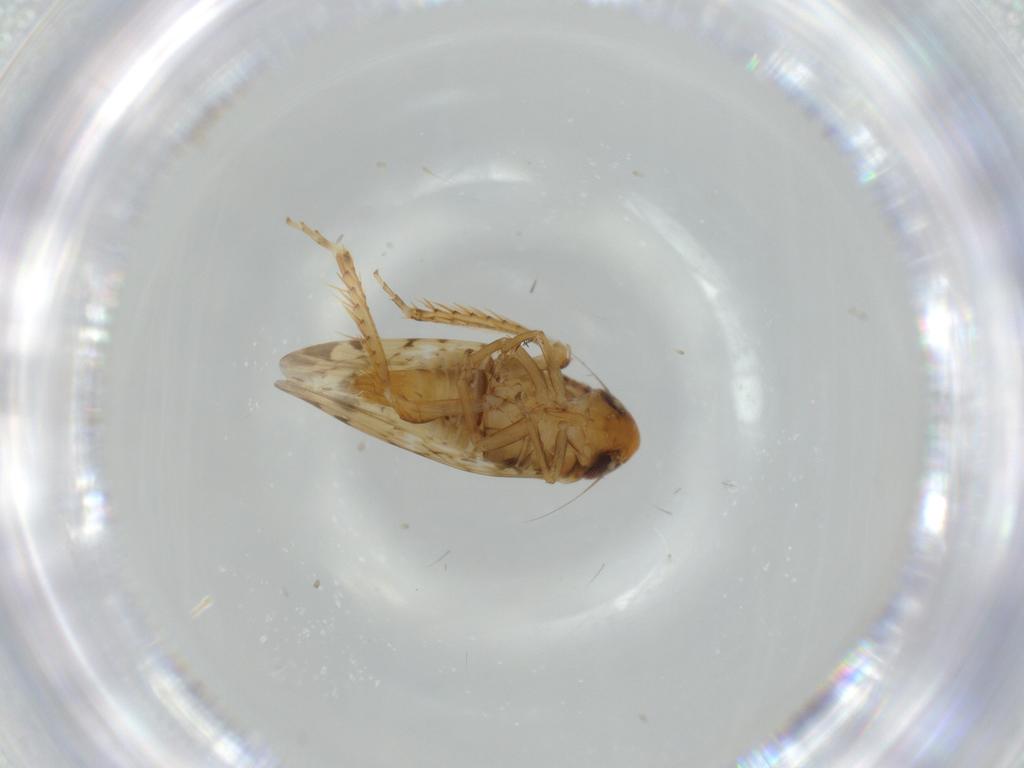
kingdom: Animalia
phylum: Arthropoda
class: Insecta
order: Hemiptera
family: Cicadellidae
